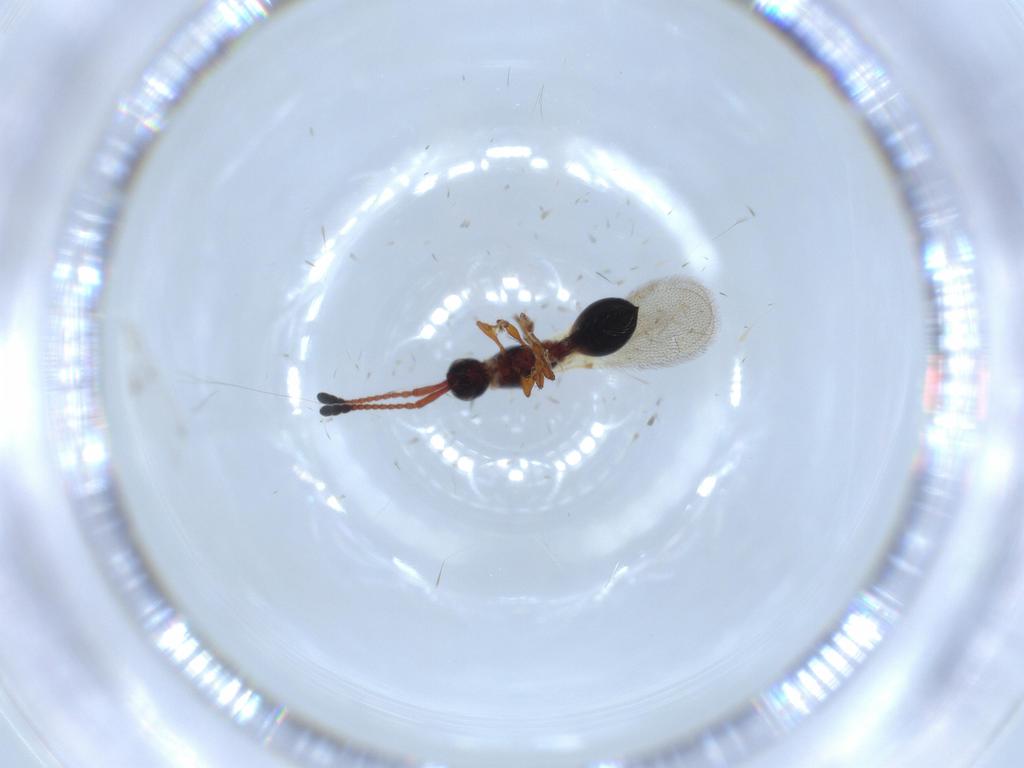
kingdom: Animalia
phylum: Arthropoda
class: Insecta
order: Hymenoptera
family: Diapriidae
